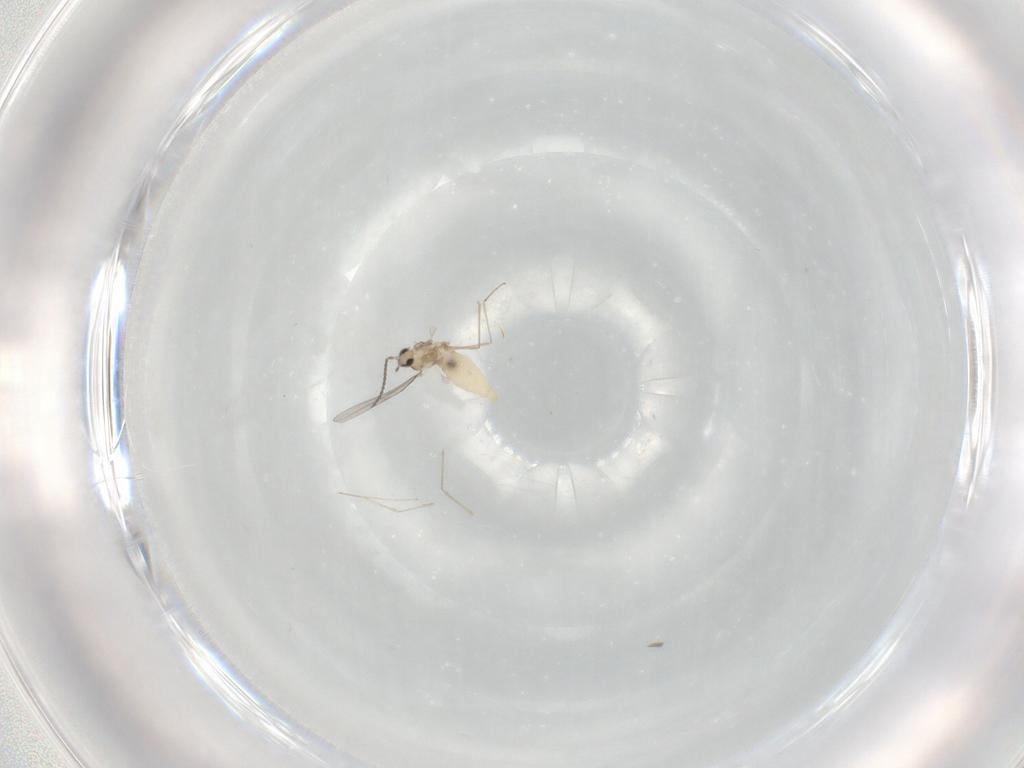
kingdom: Animalia
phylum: Arthropoda
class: Insecta
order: Diptera
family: Cecidomyiidae
